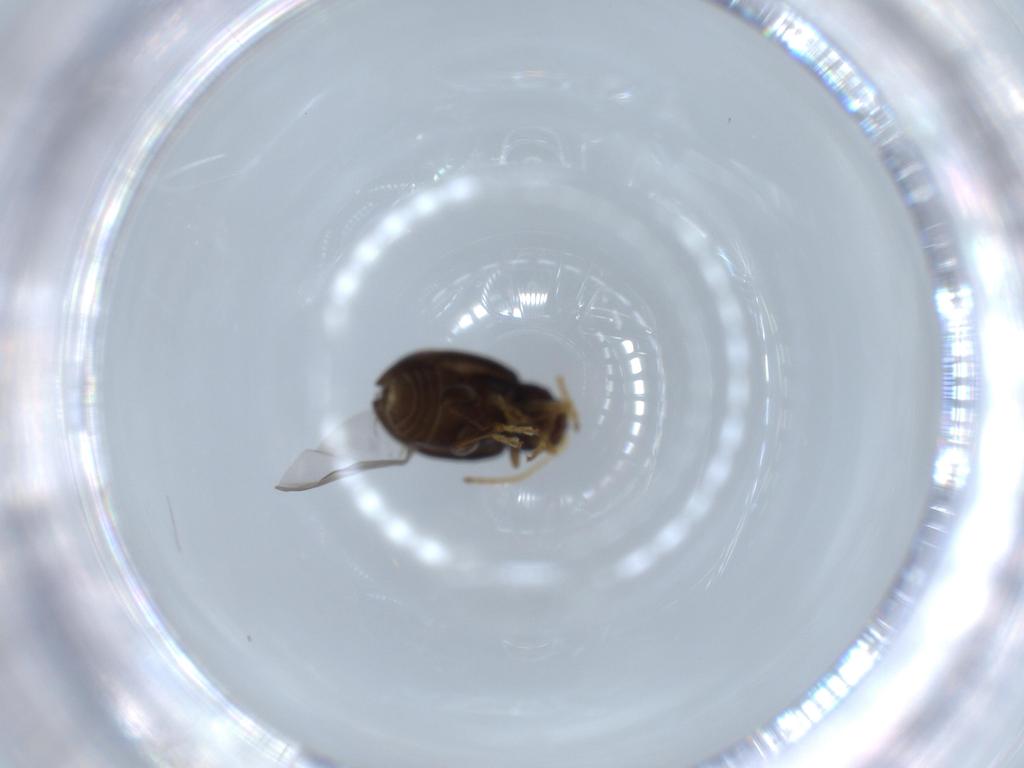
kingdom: Animalia
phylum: Arthropoda
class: Insecta
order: Coleoptera
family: Chrysomelidae
